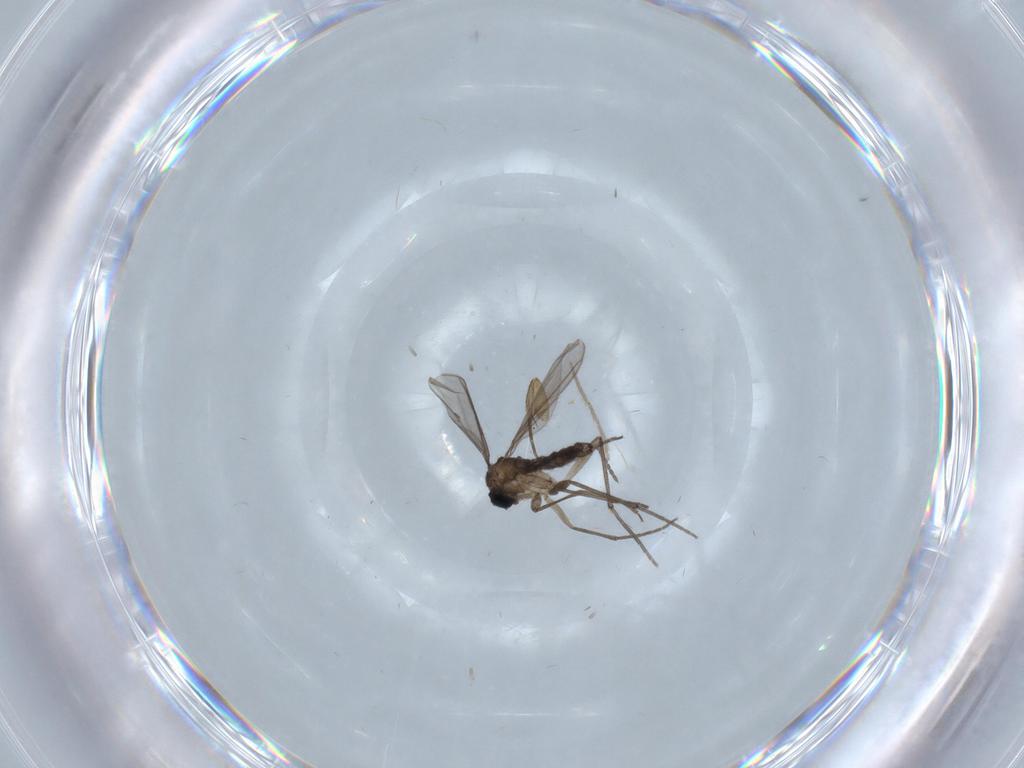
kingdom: Animalia
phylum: Arthropoda
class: Insecta
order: Diptera
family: Sciaridae
